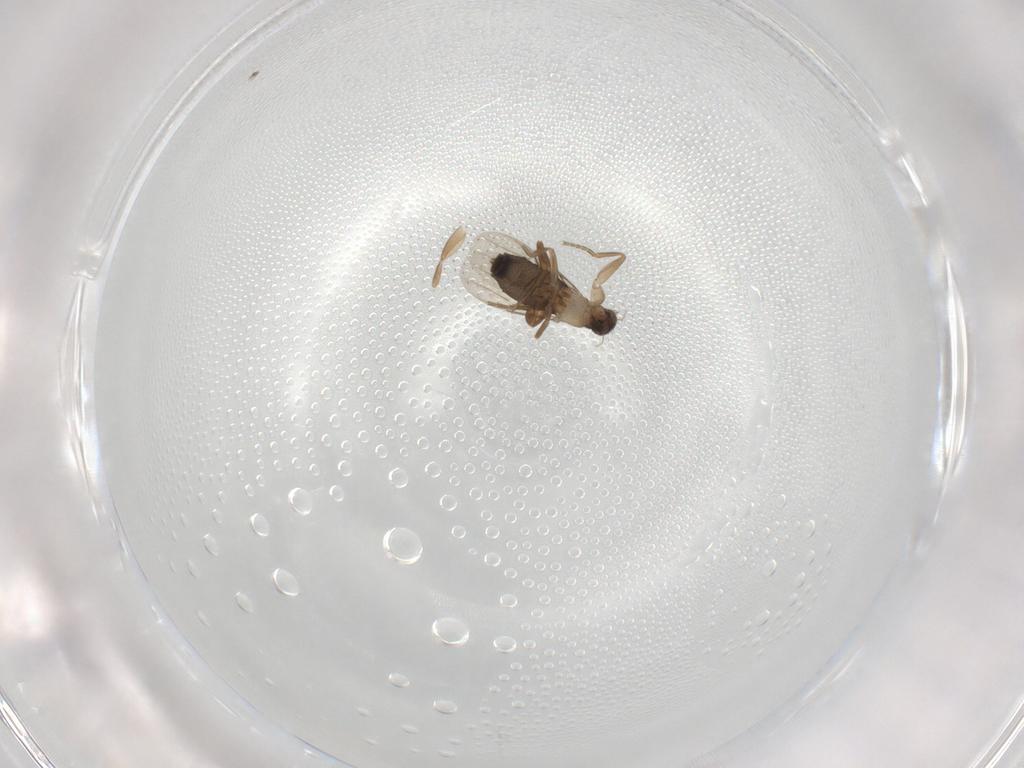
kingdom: Animalia
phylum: Arthropoda
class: Insecta
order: Diptera
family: Phoridae
